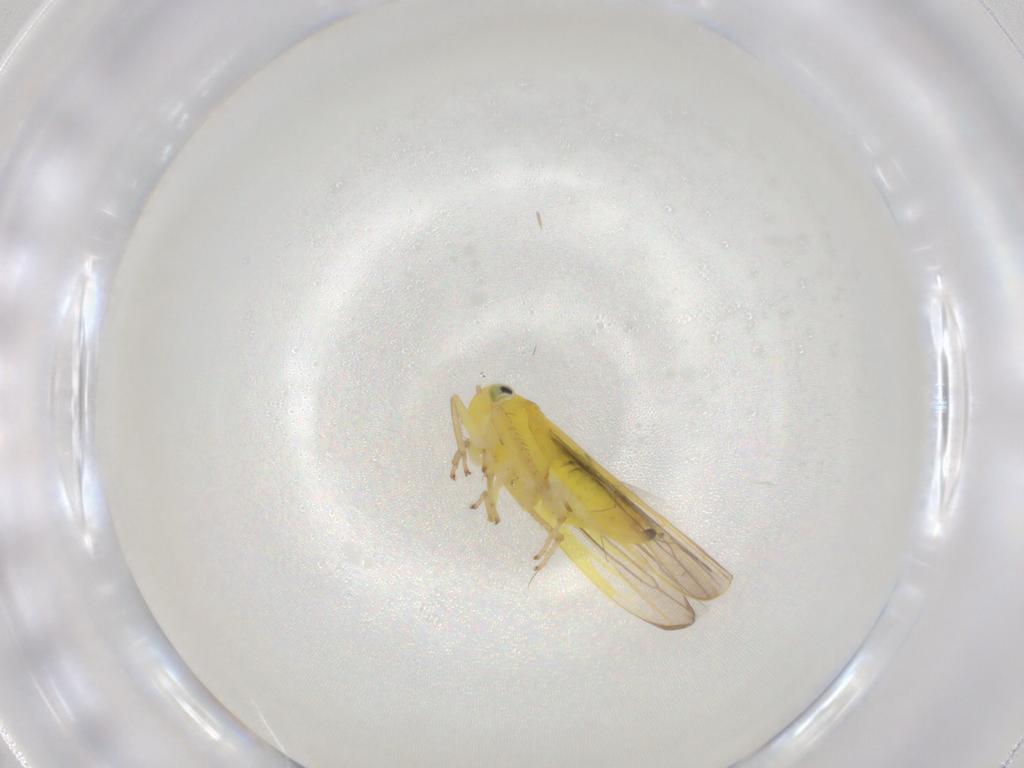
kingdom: Animalia
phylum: Arthropoda
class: Insecta
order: Hemiptera
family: Cicadellidae
